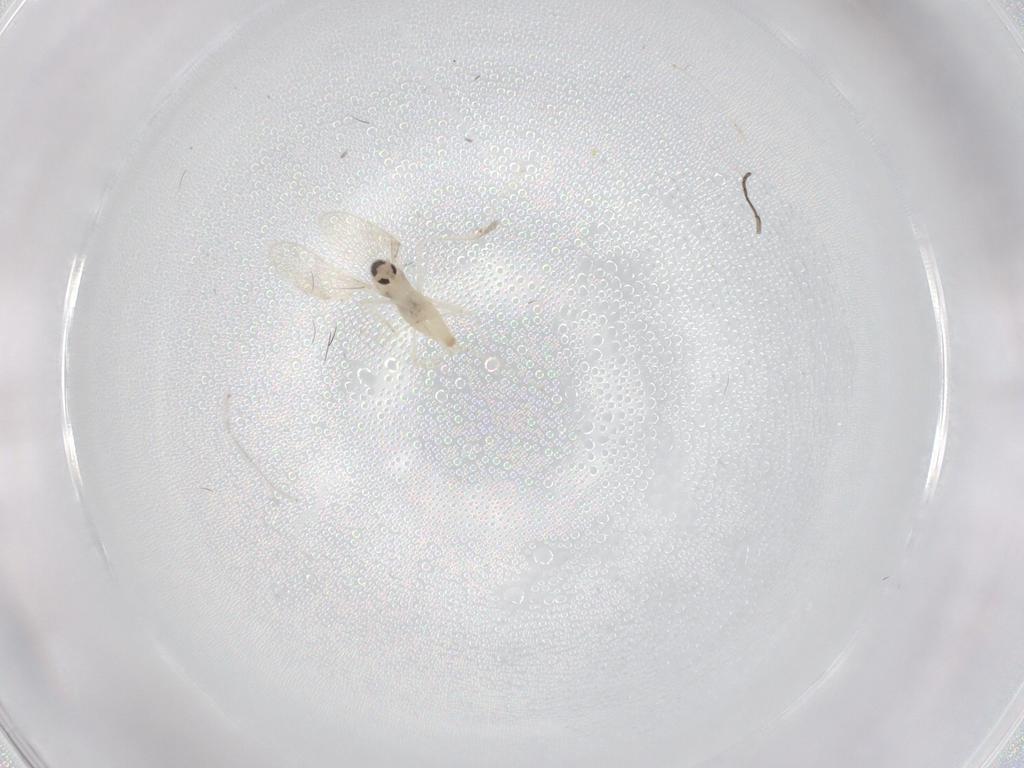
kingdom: Animalia
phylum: Arthropoda
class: Insecta
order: Diptera
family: Sciaridae
